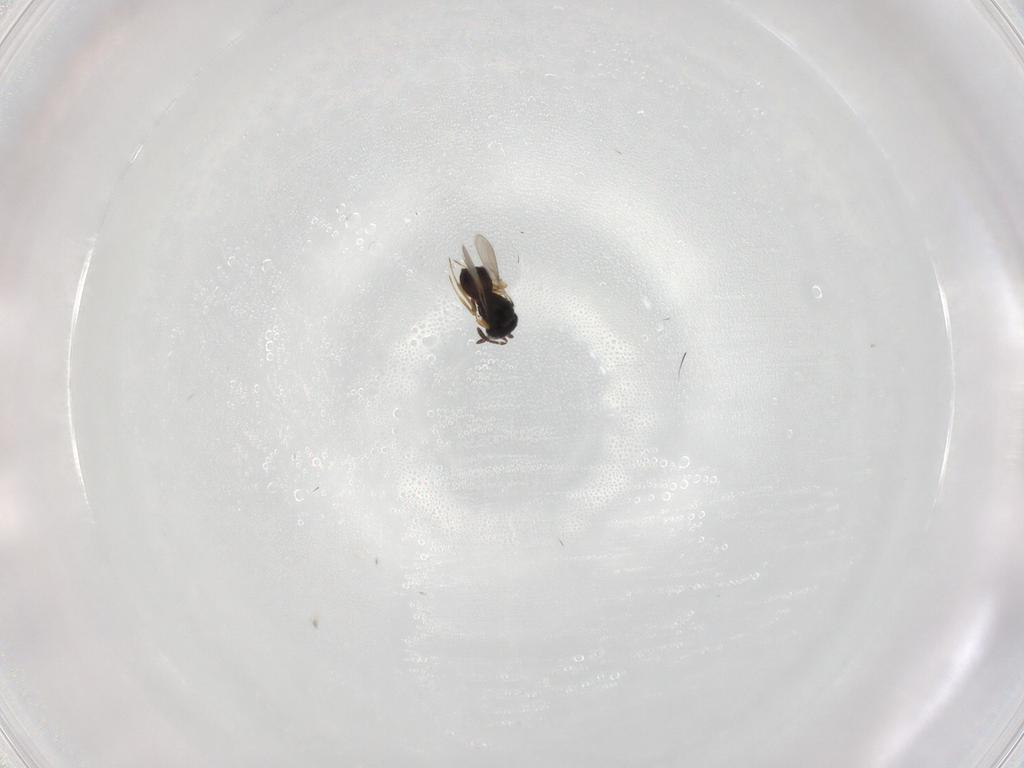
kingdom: Animalia
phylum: Arthropoda
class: Insecta
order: Hymenoptera
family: Scelionidae
